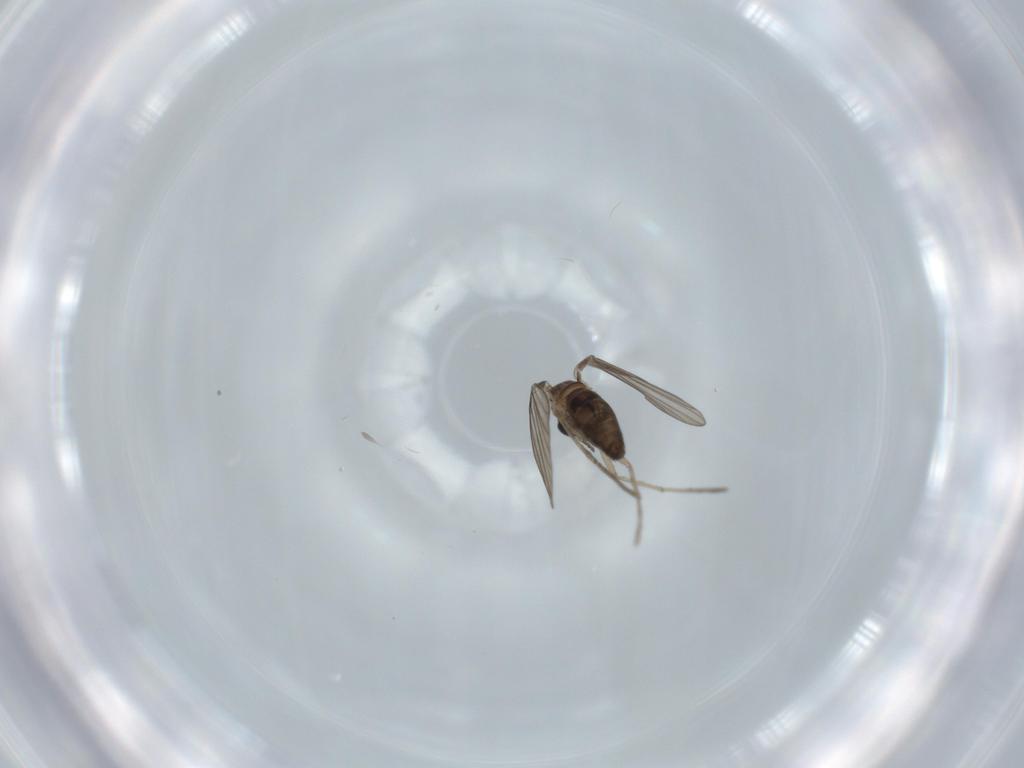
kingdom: Animalia
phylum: Arthropoda
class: Insecta
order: Diptera
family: Psychodidae
